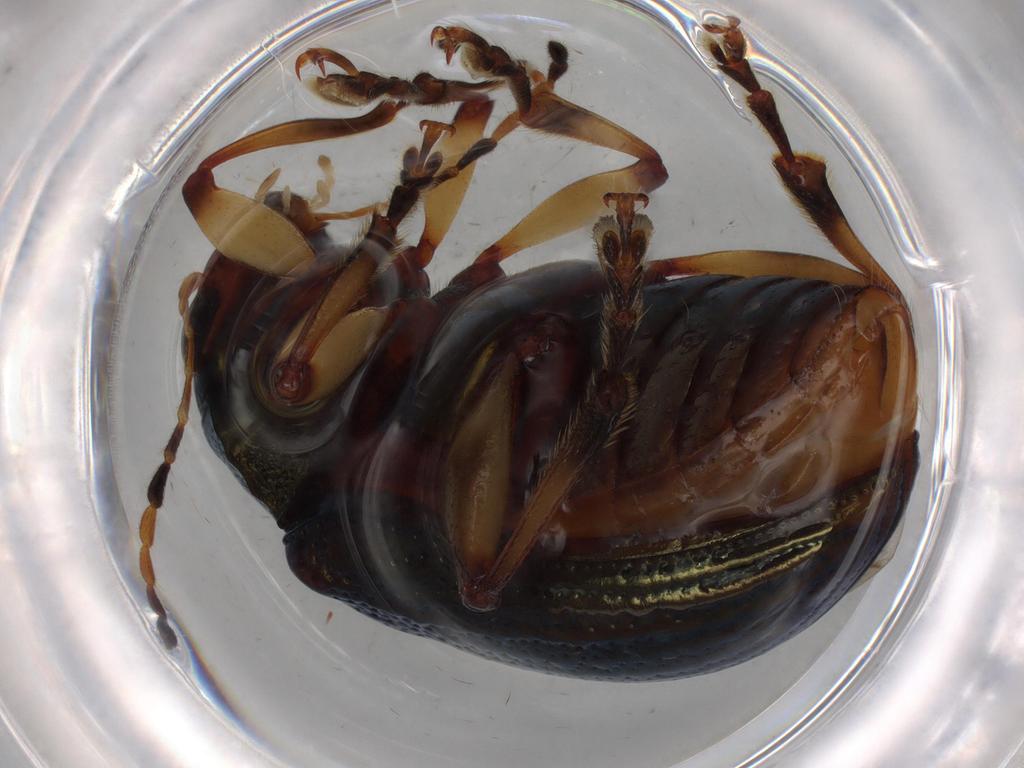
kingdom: Animalia
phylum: Arthropoda
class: Insecta
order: Coleoptera
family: Chrysomelidae
